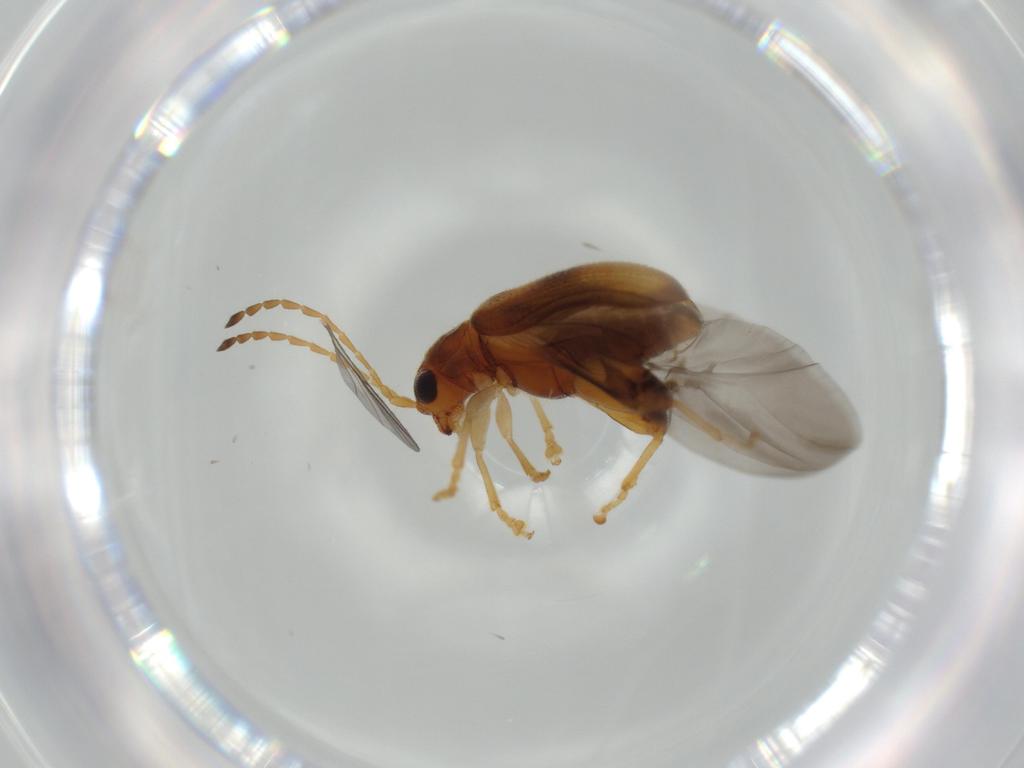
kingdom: Animalia
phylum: Arthropoda
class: Insecta
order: Coleoptera
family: Chrysomelidae
